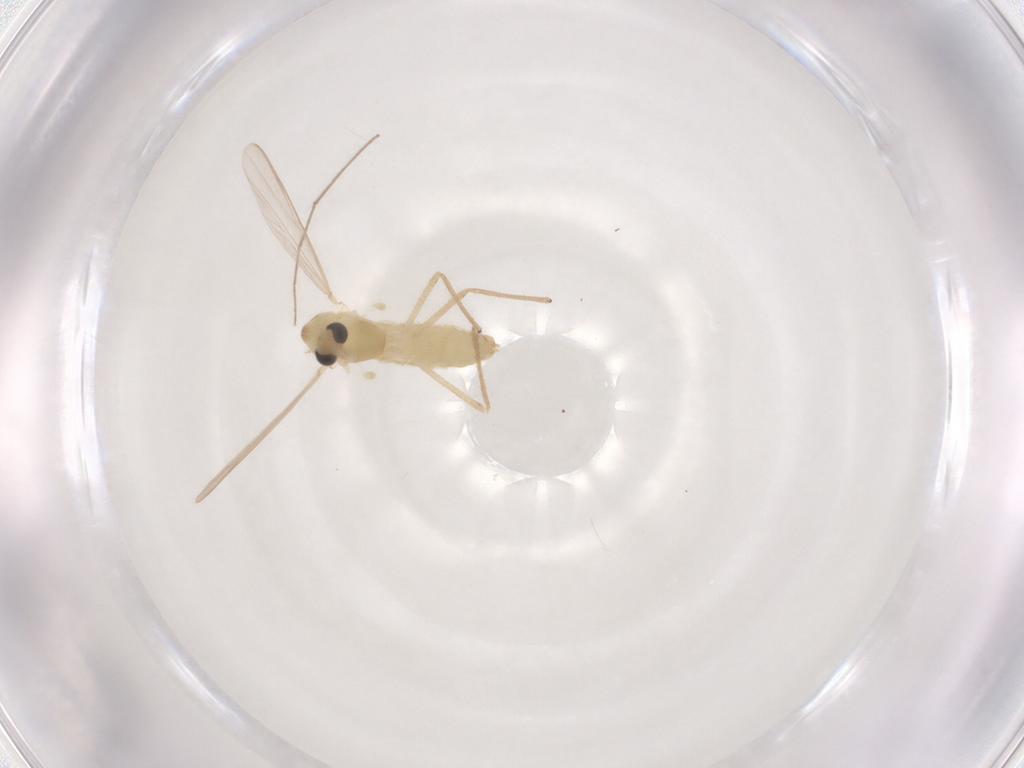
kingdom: Animalia
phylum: Arthropoda
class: Insecta
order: Diptera
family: Chironomidae
